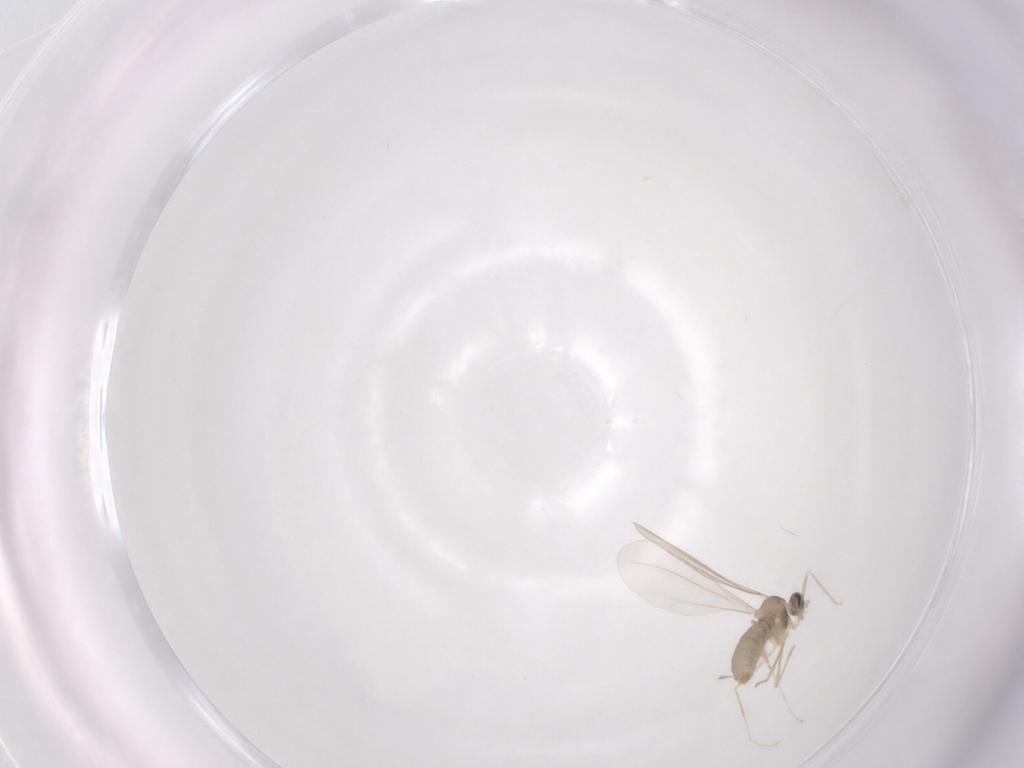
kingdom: Animalia
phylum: Arthropoda
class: Insecta
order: Diptera
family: Cecidomyiidae
